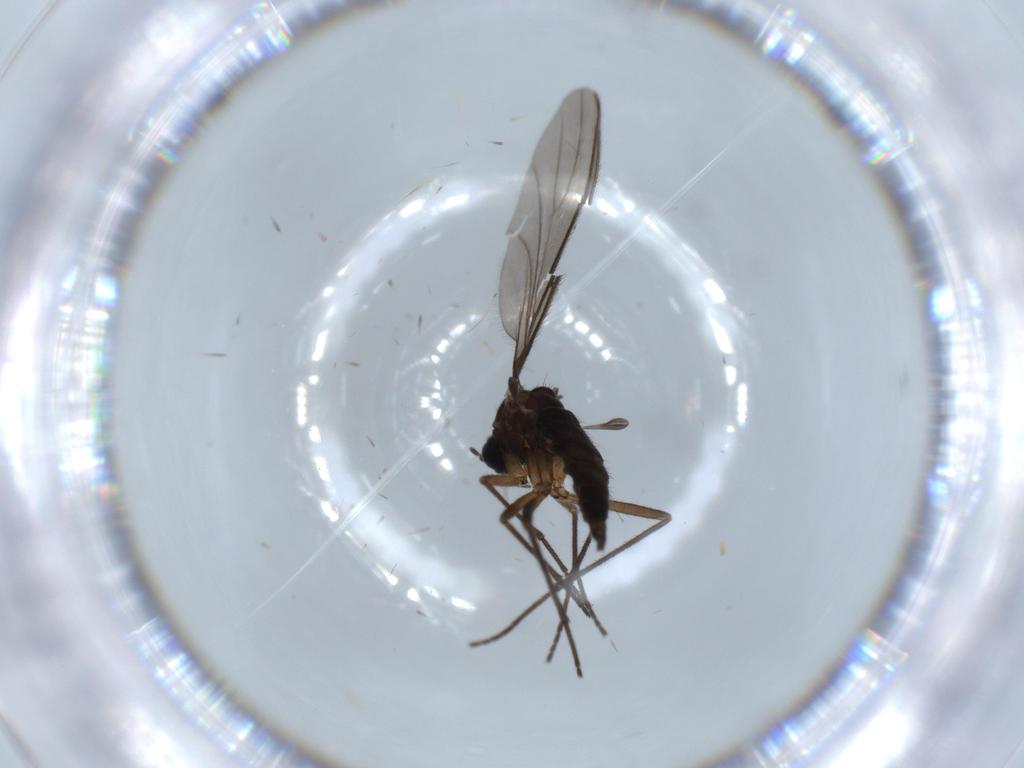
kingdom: Animalia
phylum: Arthropoda
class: Insecta
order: Diptera
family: Sciaridae
